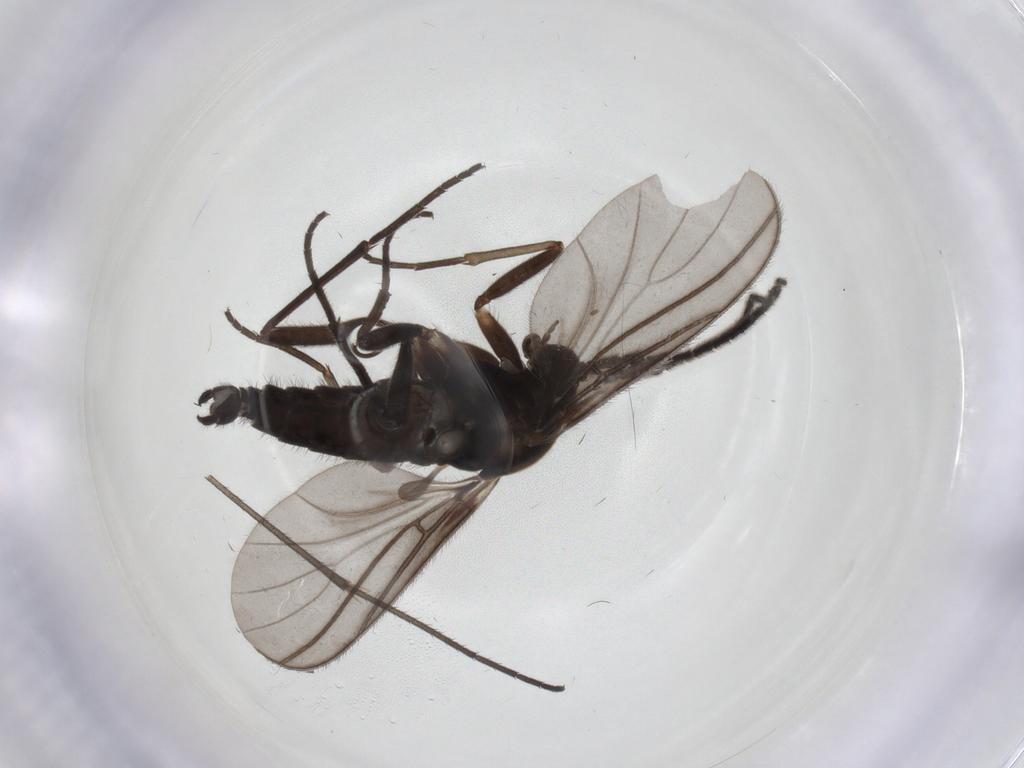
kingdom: Animalia
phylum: Arthropoda
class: Insecta
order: Diptera
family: Sciaridae
